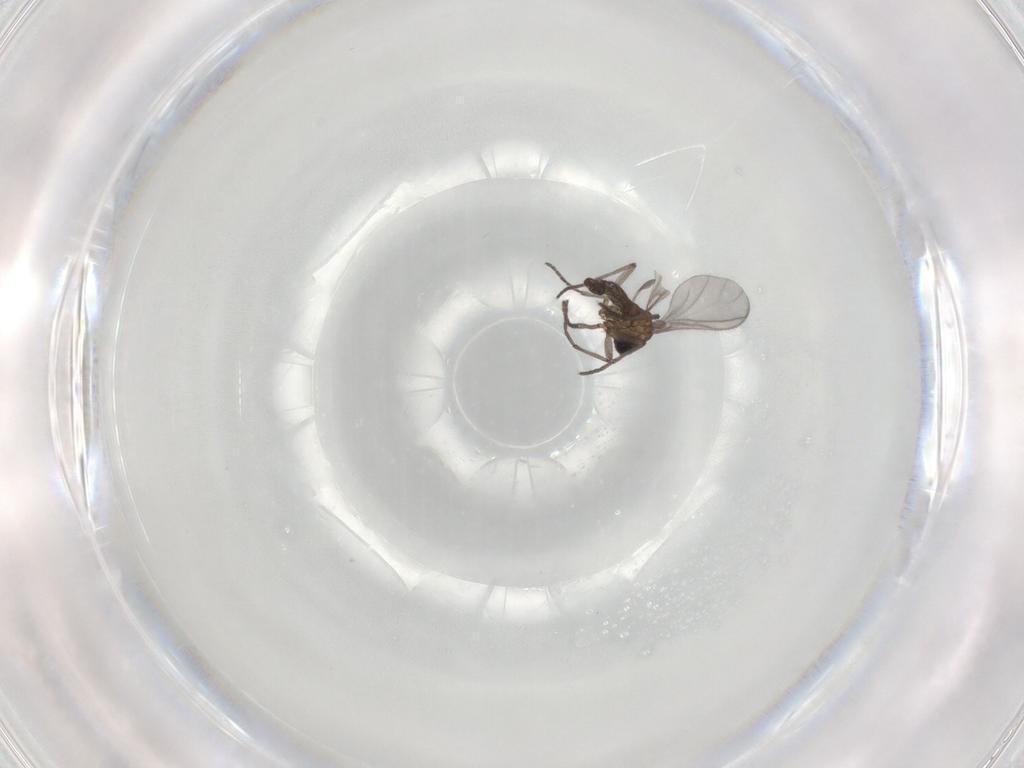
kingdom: Animalia
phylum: Arthropoda
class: Insecta
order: Diptera
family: Sciaridae
